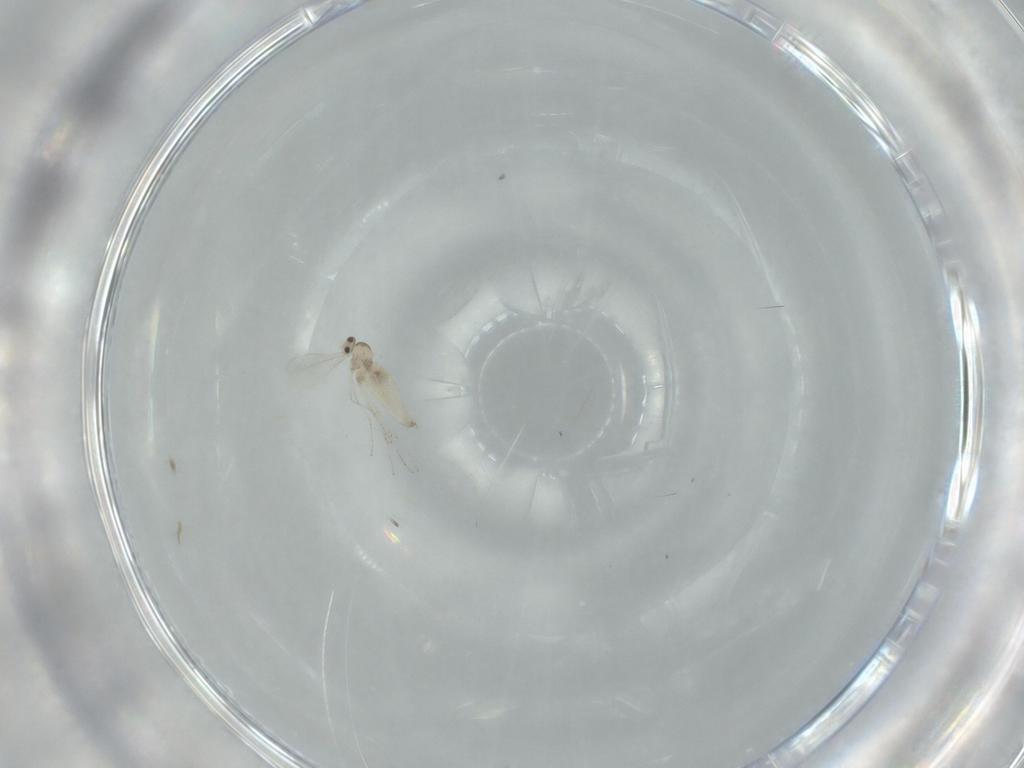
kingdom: Animalia
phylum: Arthropoda
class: Insecta
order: Diptera
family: Cecidomyiidae
